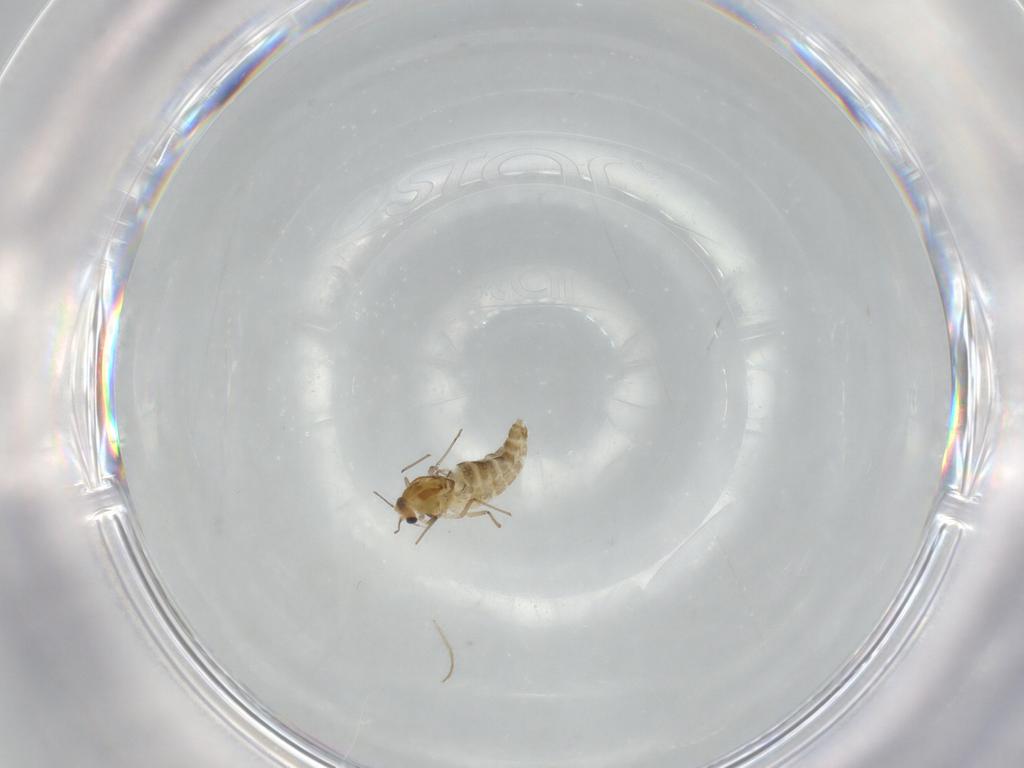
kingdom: Animalia
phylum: Arthropoda
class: Insecta
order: Diptera
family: Chironomidae
